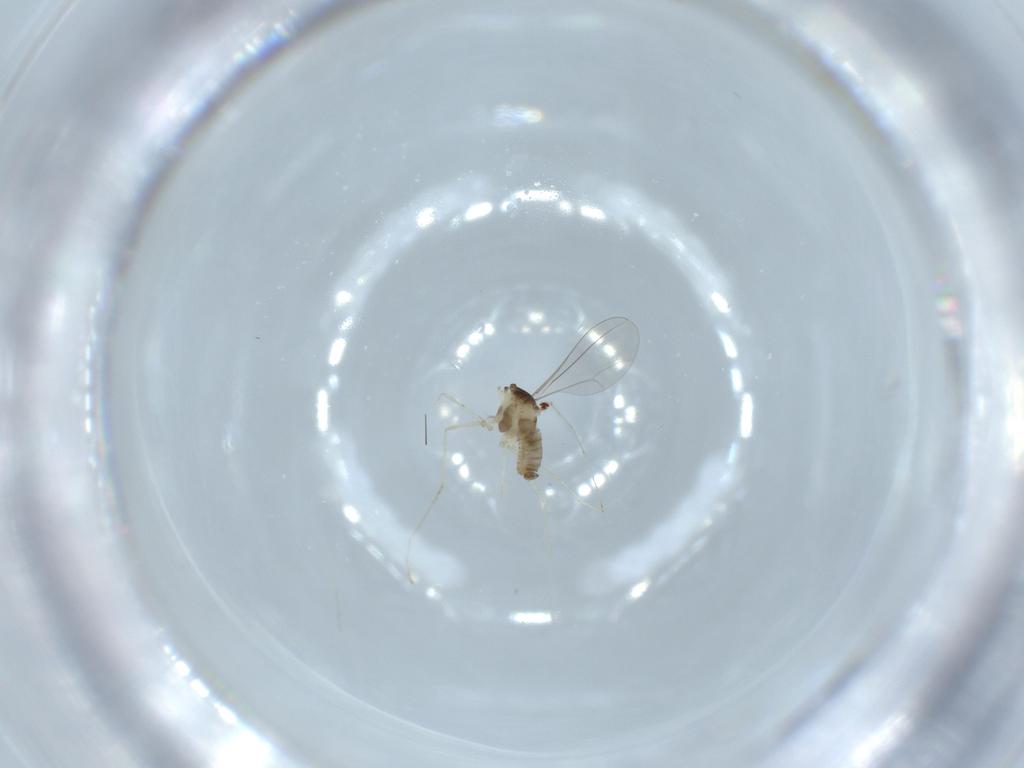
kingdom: Animalia
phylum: Arthropoda
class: Insecta
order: Diptera
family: Cecidomyiidae
